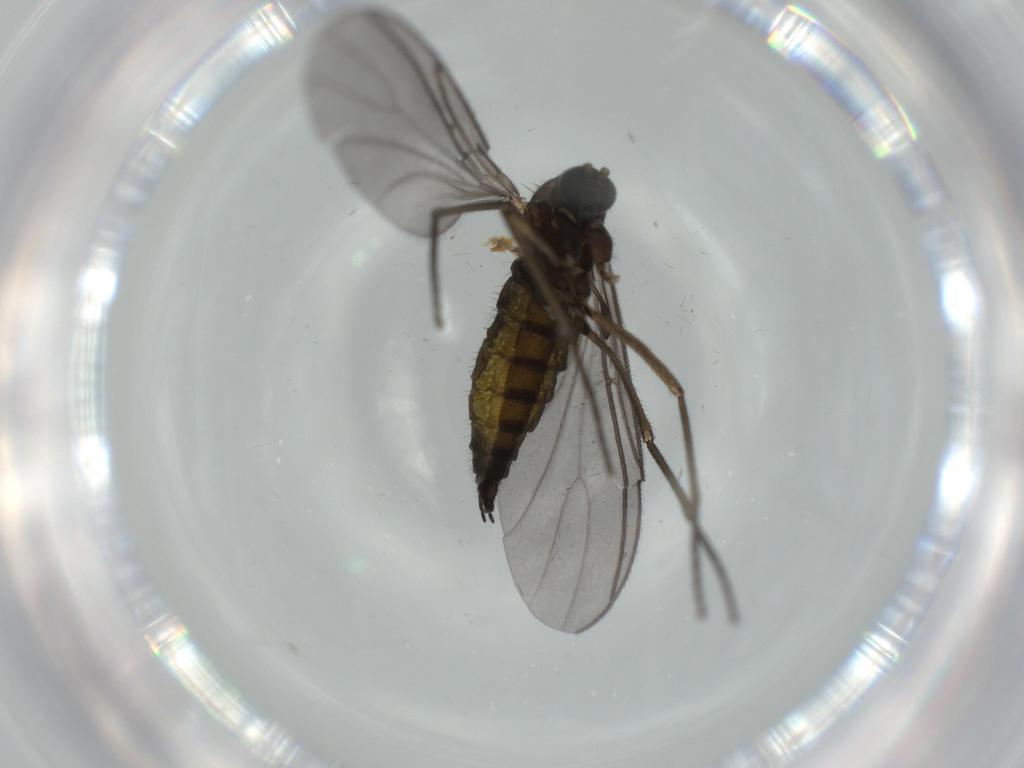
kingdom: Animalia
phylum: Arthropoda
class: Insecta
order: Diptera
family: Sciaridae
